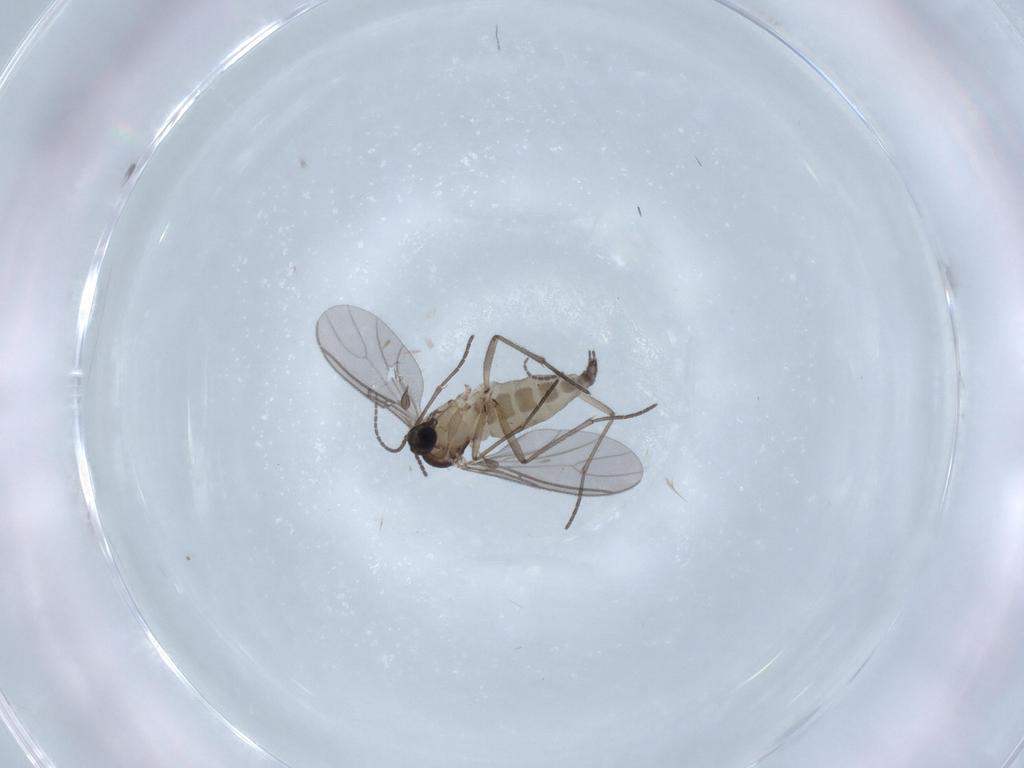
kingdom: Animalia
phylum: Arthropoda
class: Insecta
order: Diptera
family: Sciaridae
